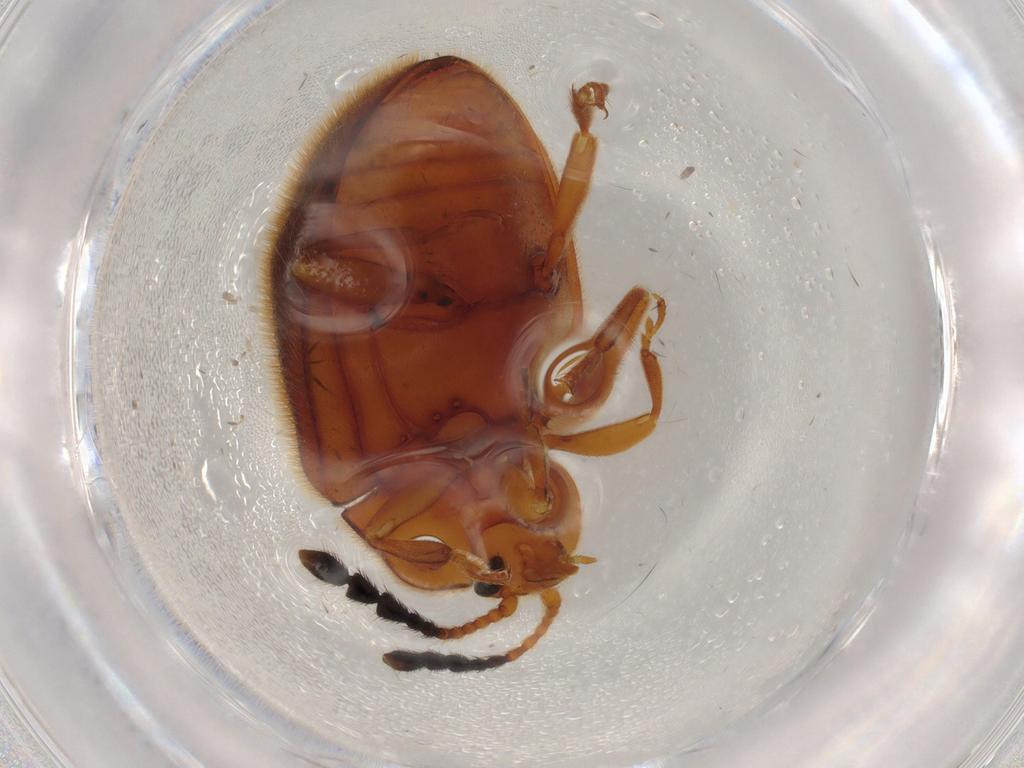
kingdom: Animalia
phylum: Arthropoda
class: Insecta
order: Coleoptera
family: Endomychidae
